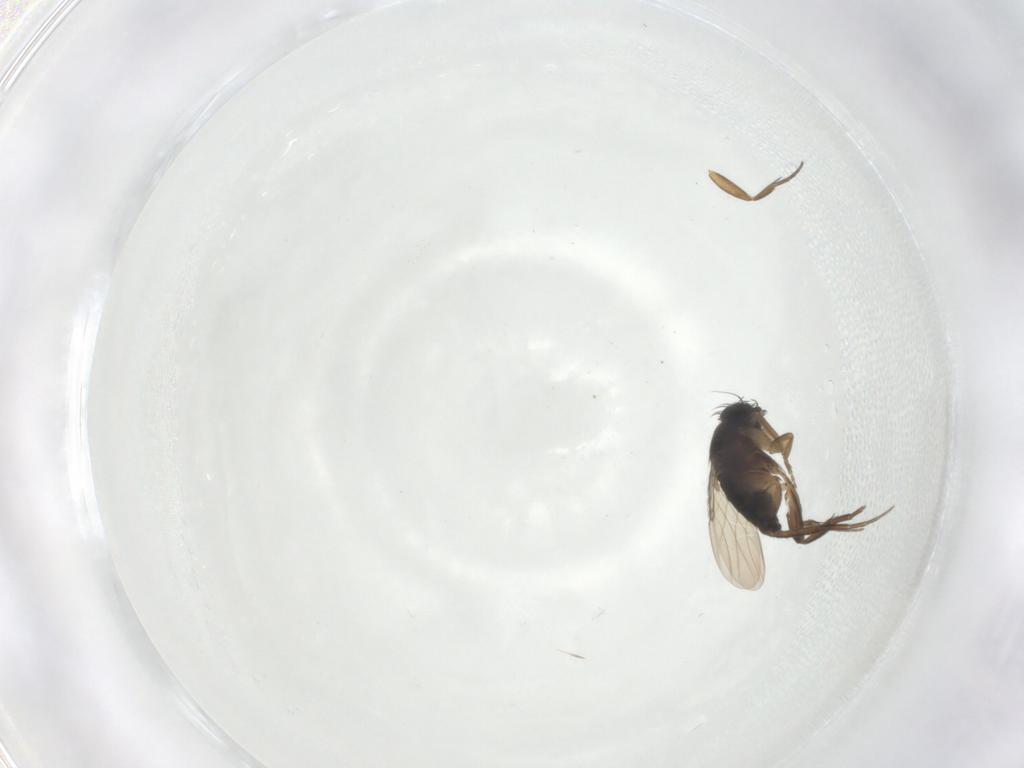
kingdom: Animalia
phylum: Arthropoda
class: Insecta
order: Diptera
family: Phoridae
